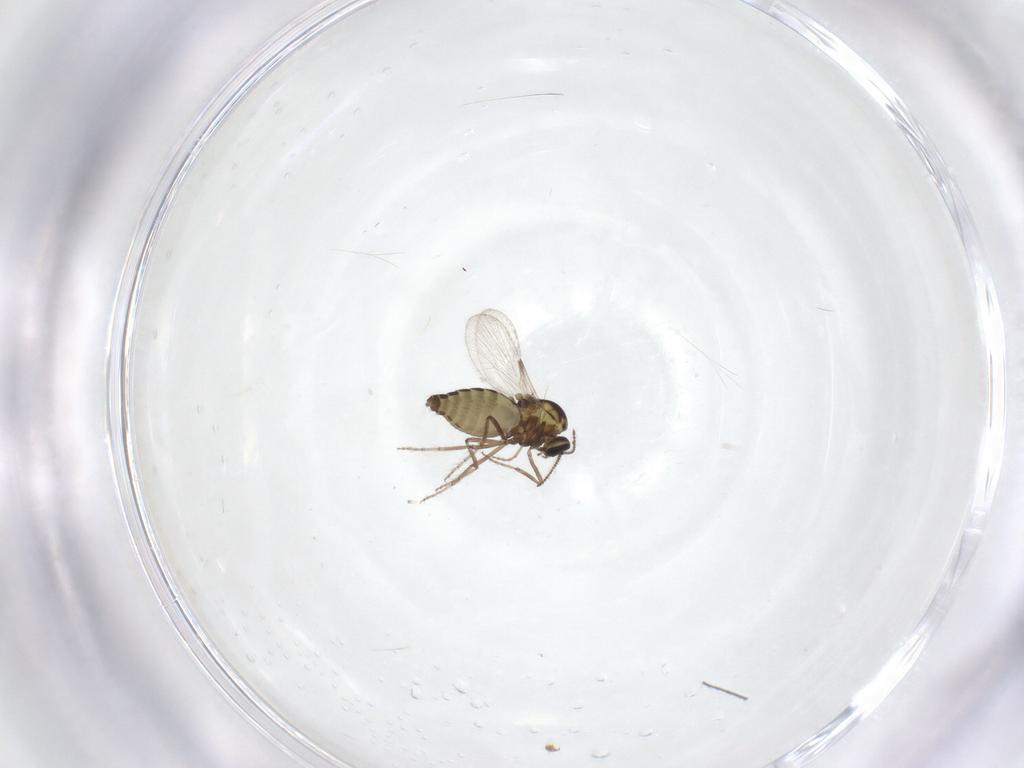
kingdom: Animalia
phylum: Arthropoda
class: Insecta
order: Diptera
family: Ceratopogonidae
